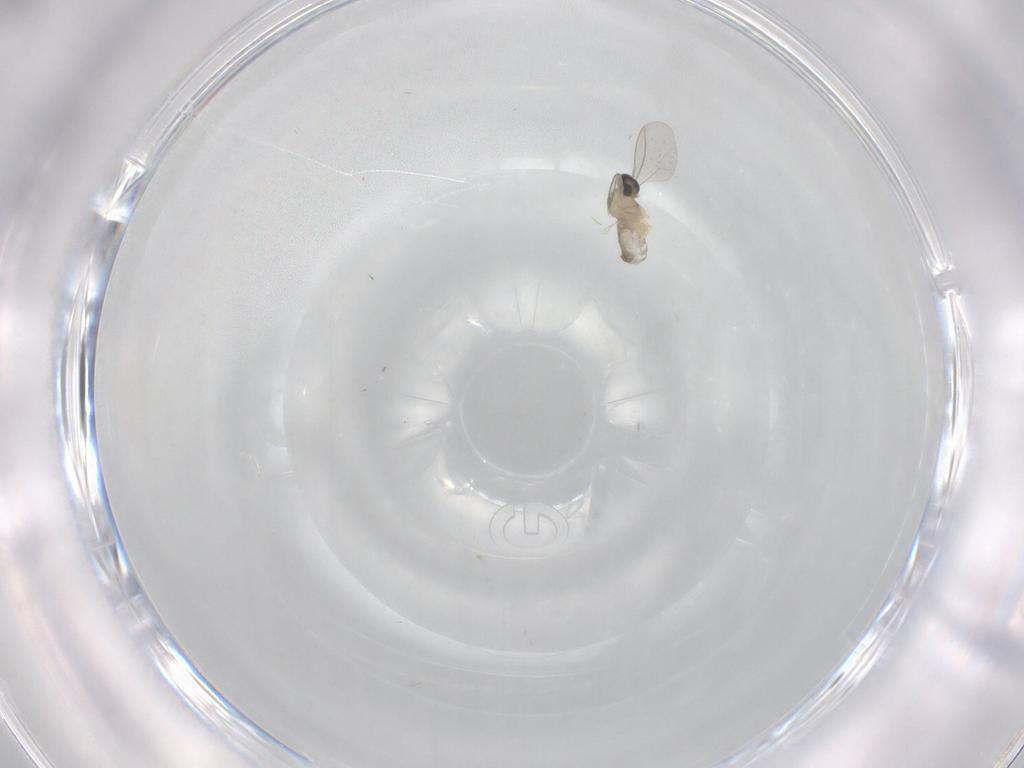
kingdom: Animalia
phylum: Arthropoda
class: Insecta
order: Diptera
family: Cecidomyiidae
